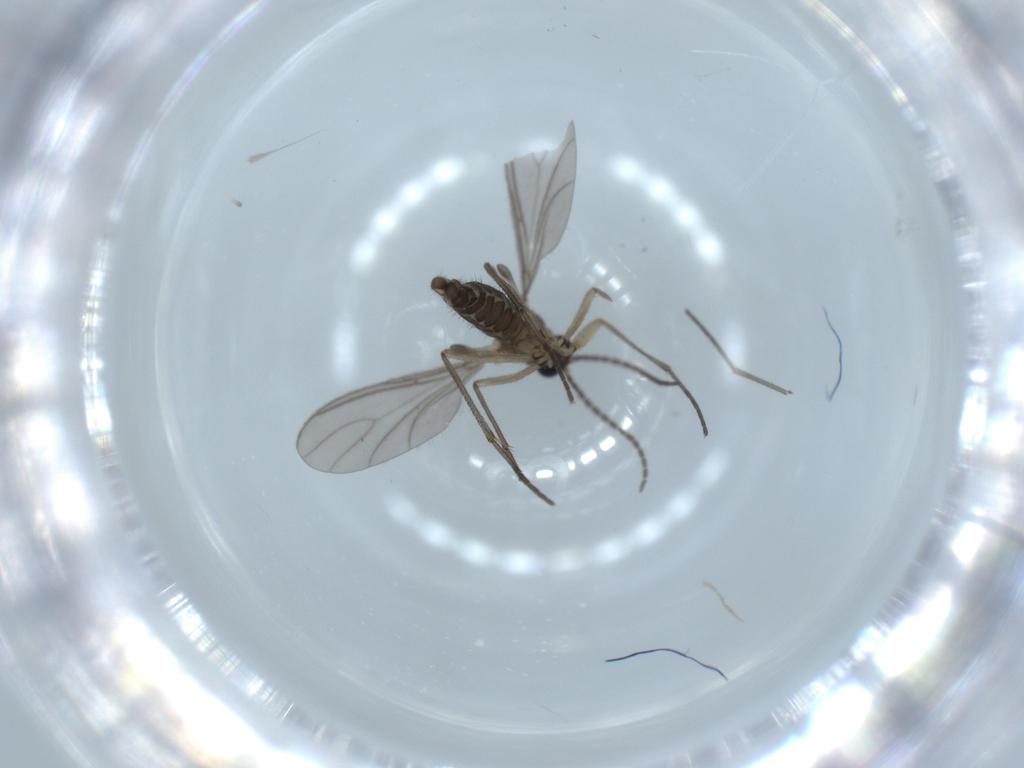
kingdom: Animalia
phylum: Arthropoda
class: Insecta
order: Diptera
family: Sciaridae
